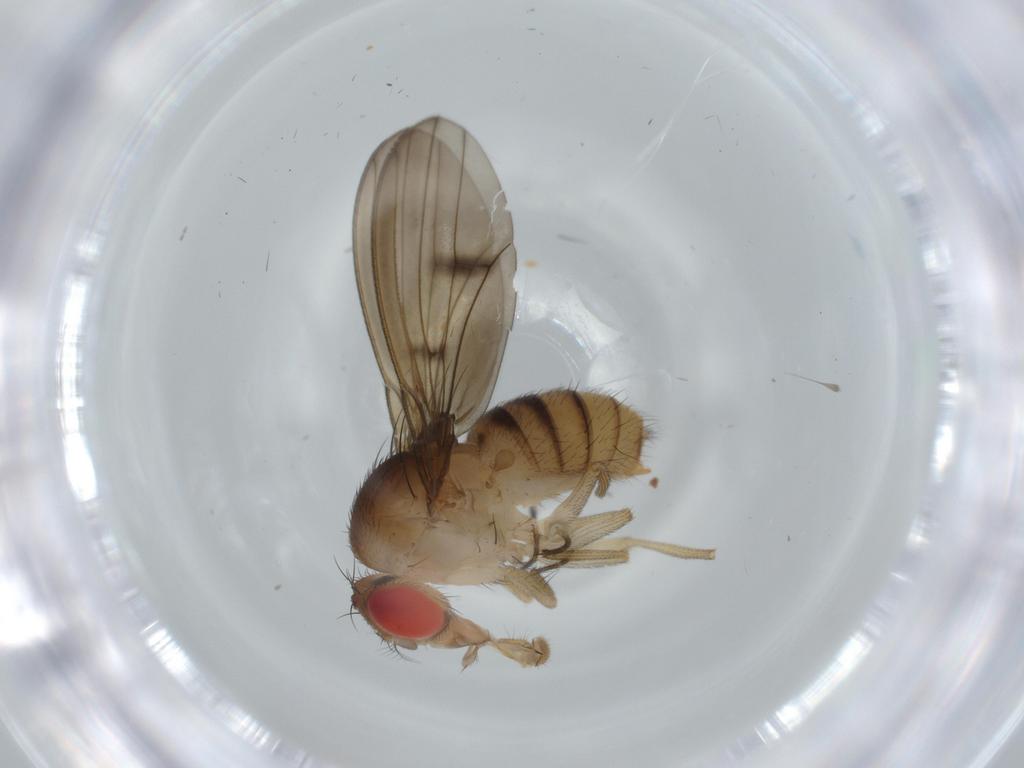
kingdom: Animalia
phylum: Arthropoda
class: Insecta
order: Diptera
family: Drosophilidae
